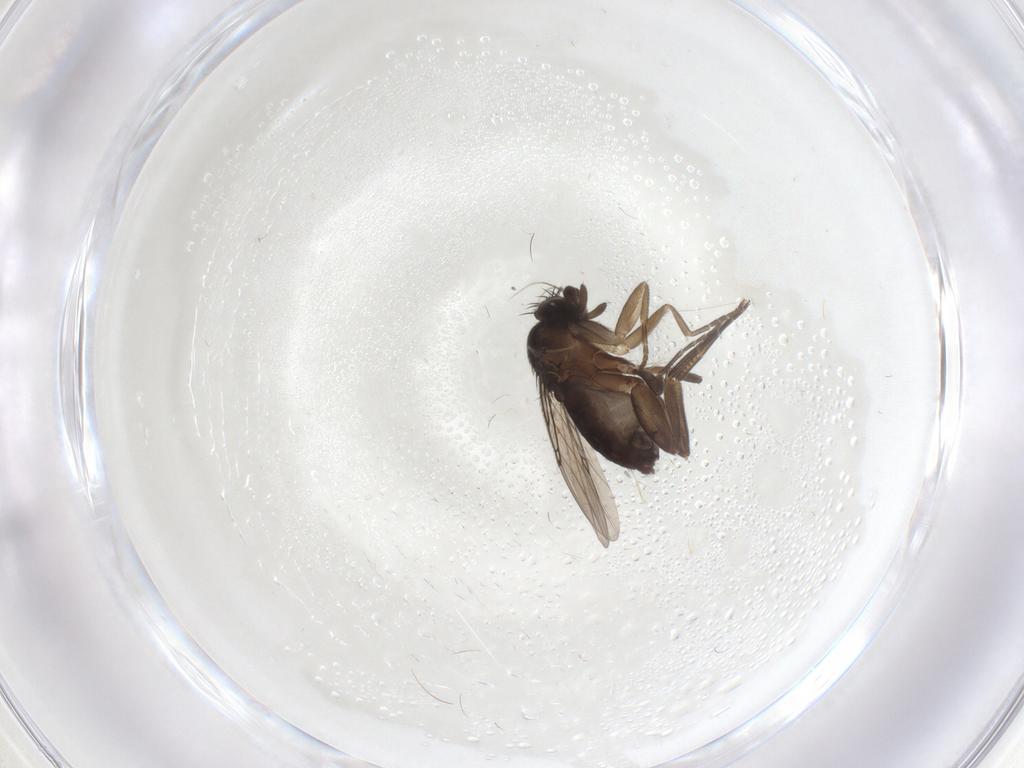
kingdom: Animalia
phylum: Arthropoda
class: Insecta
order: Diptera
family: Phoridae
